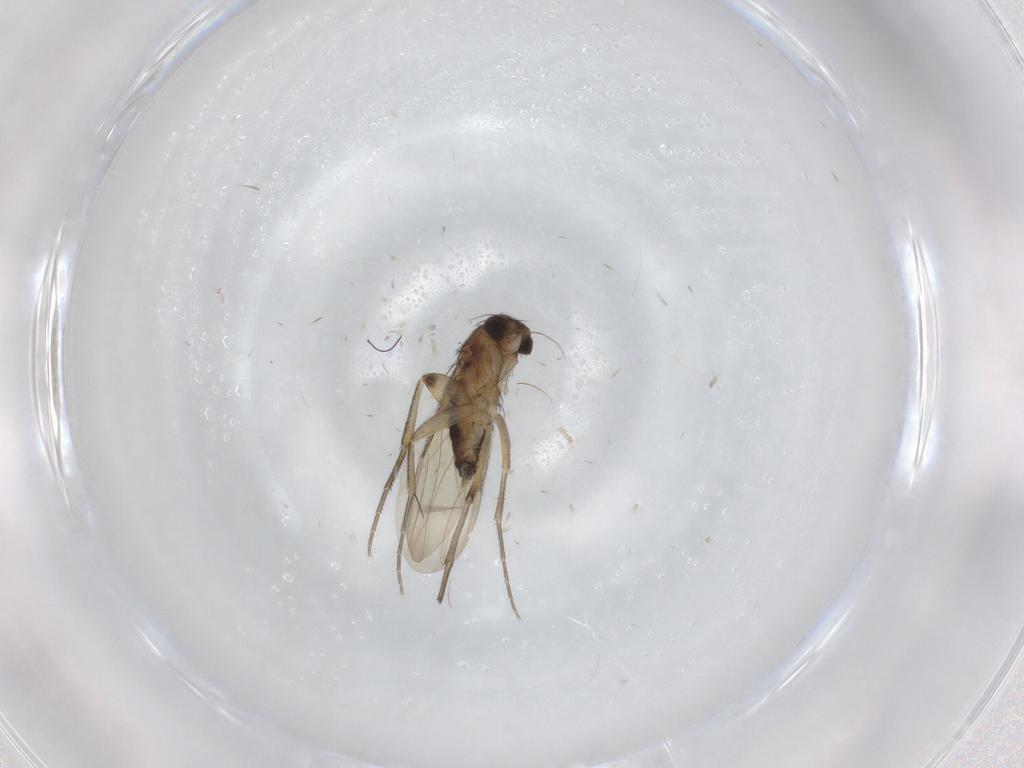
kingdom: Animalia
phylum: Arthropoda
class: Insecta
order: Diptera
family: Phoridae
